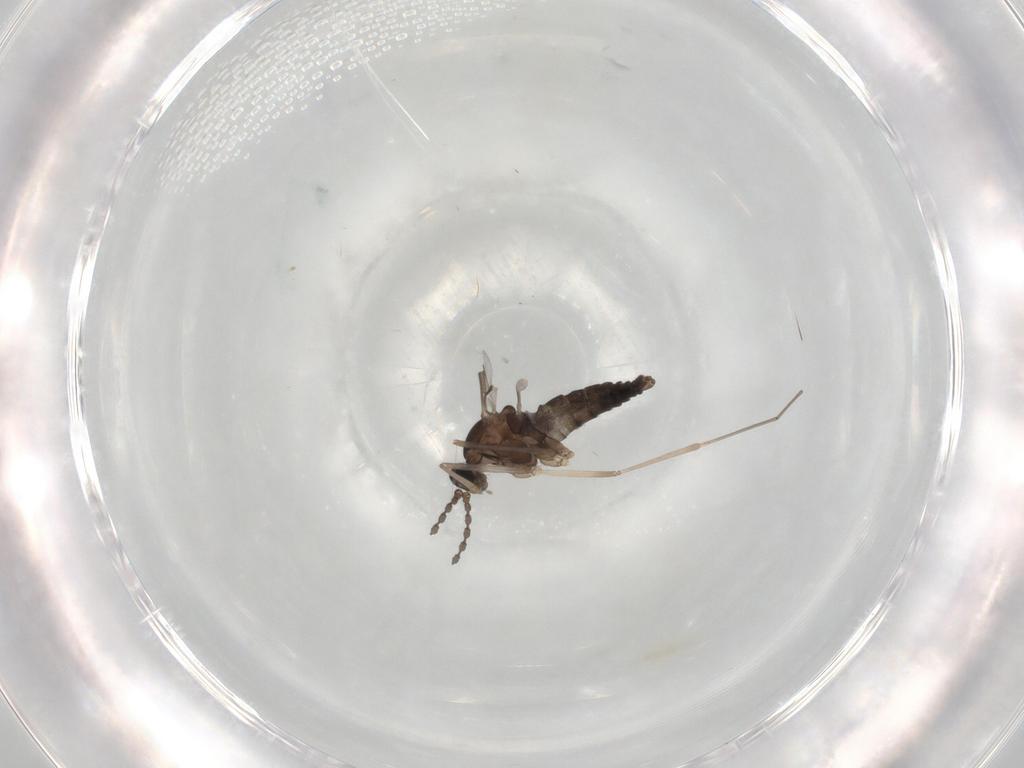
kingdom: Animalia
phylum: Arthropoda
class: Insecta
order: Diptera
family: Cecidomyiidae
